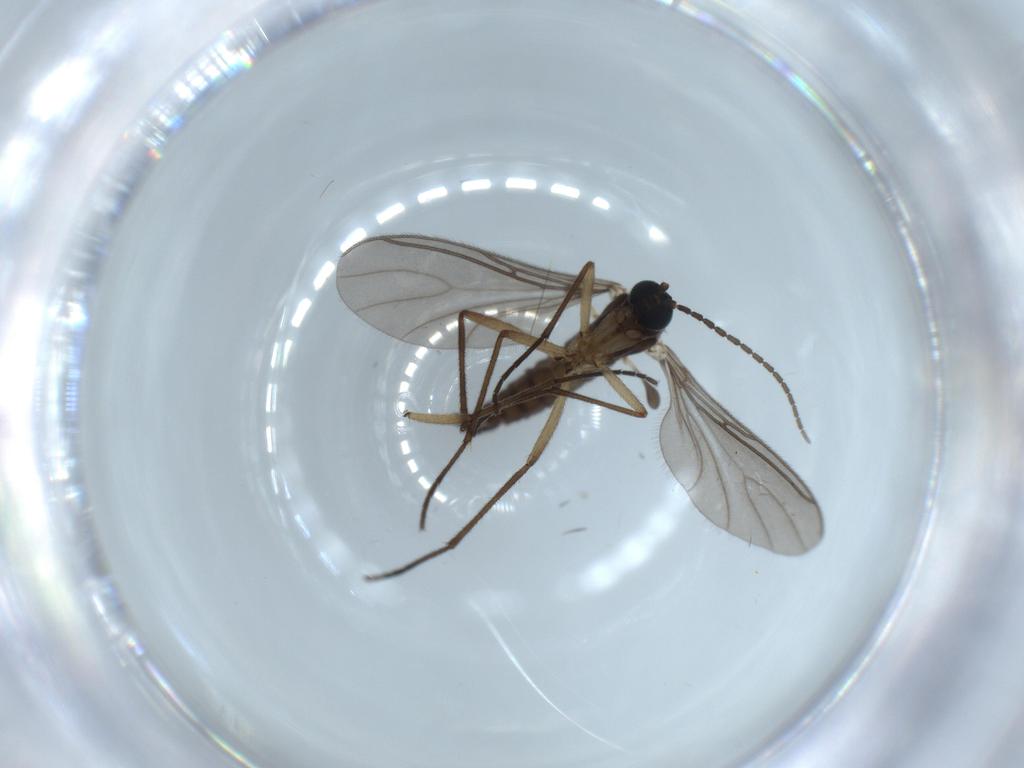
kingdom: Animalia
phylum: Arthropoda
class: Insecta
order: Diptera
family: Sciaridae
